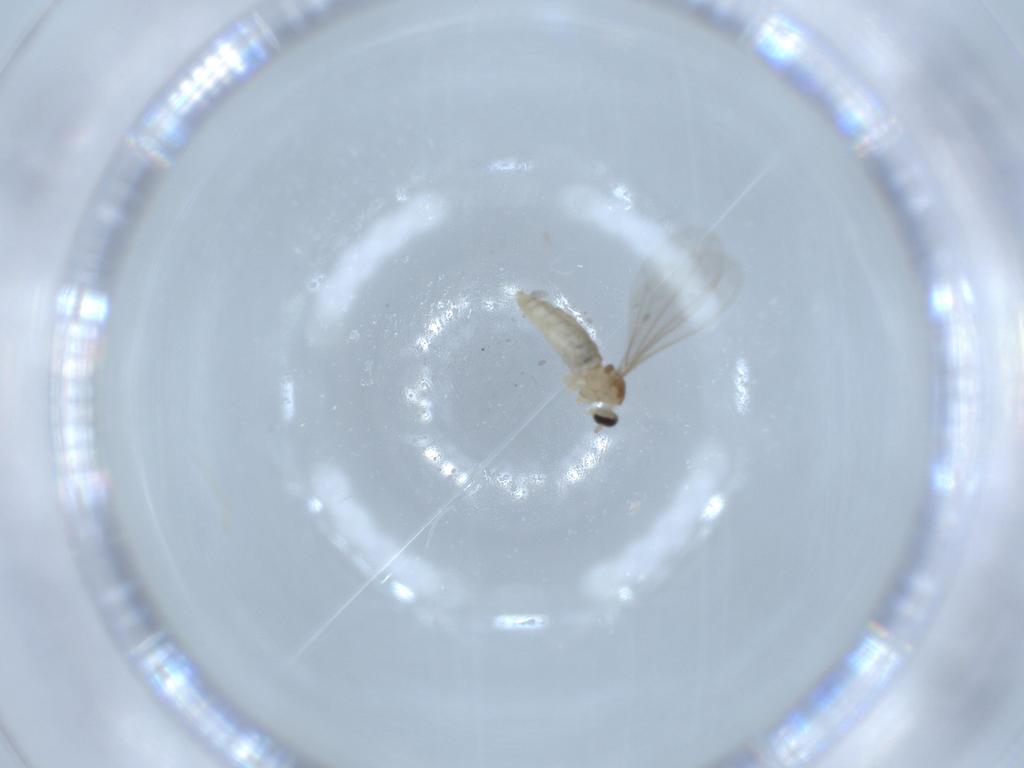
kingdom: Animalia
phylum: Arthropoda
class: Insecta
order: Diptera
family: Cecidomyiidae
